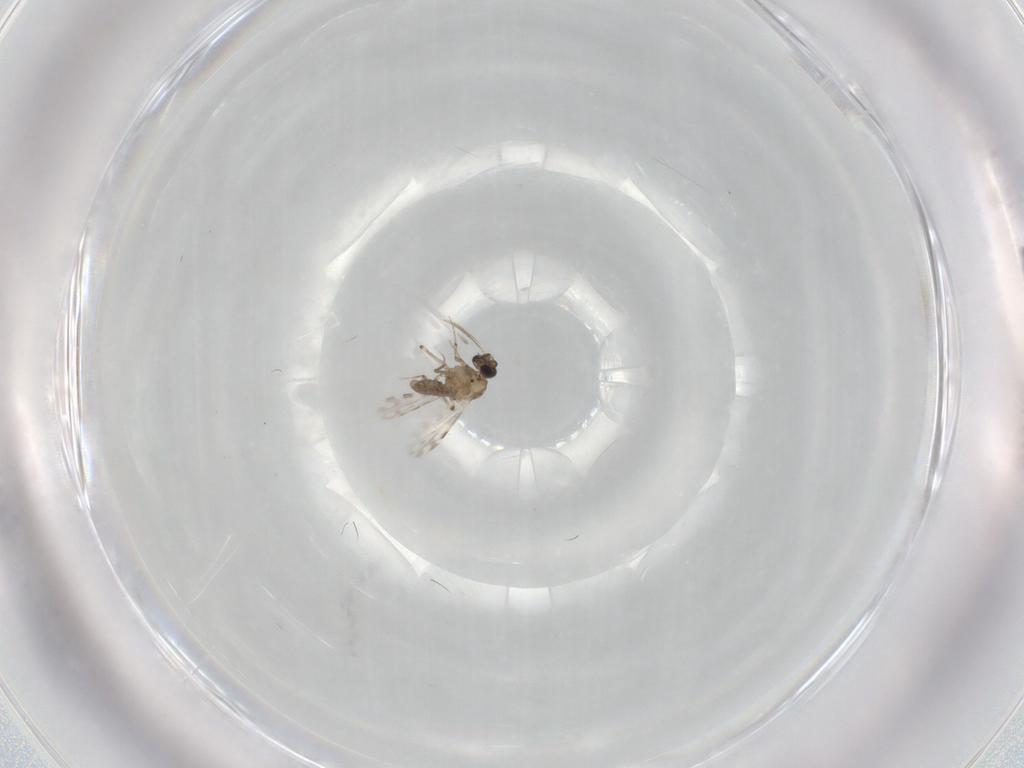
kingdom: Animalia
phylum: Arthropoda
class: Insecta
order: Diptera
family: Ceratopogonidae
